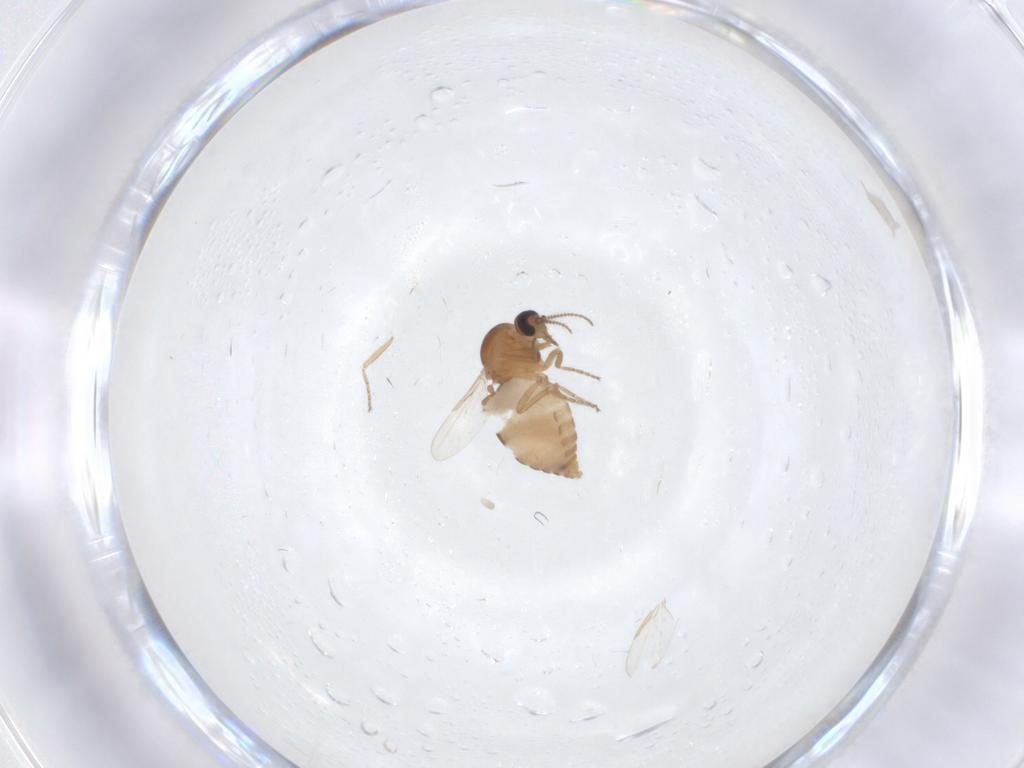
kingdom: Animalia
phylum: Arthropoda
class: Insecta
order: Diptera
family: Ceratopogonidae
